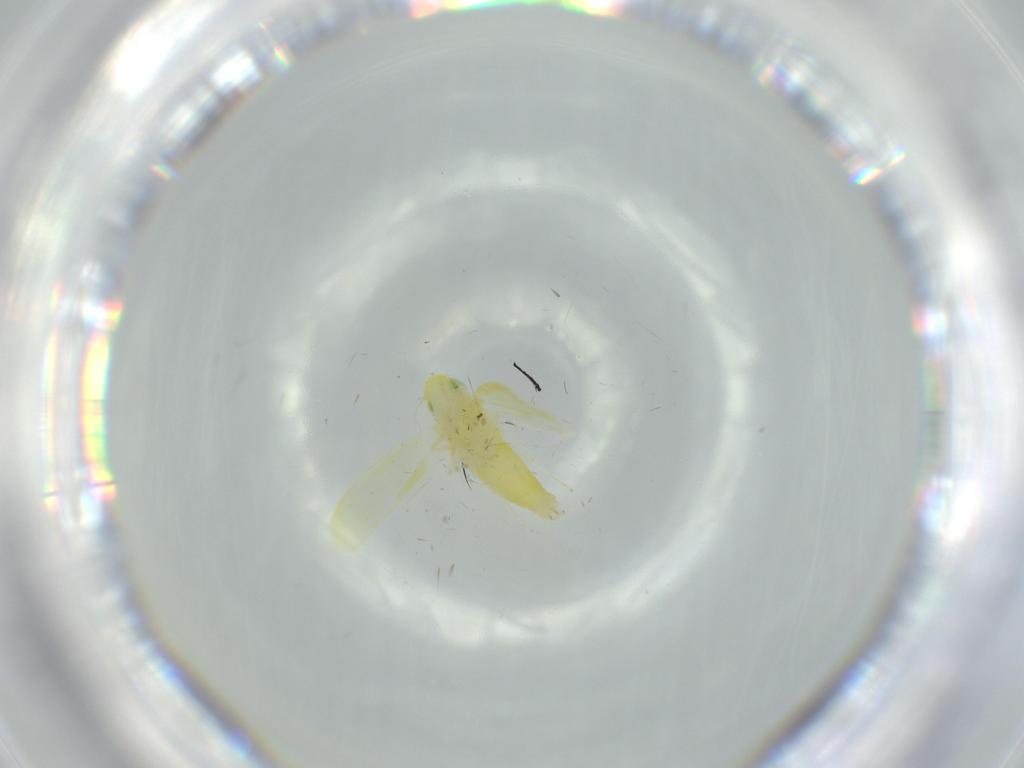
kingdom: Animalia
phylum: Arthropoda
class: Insecta
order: Hemiptera
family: Cicadellidae
